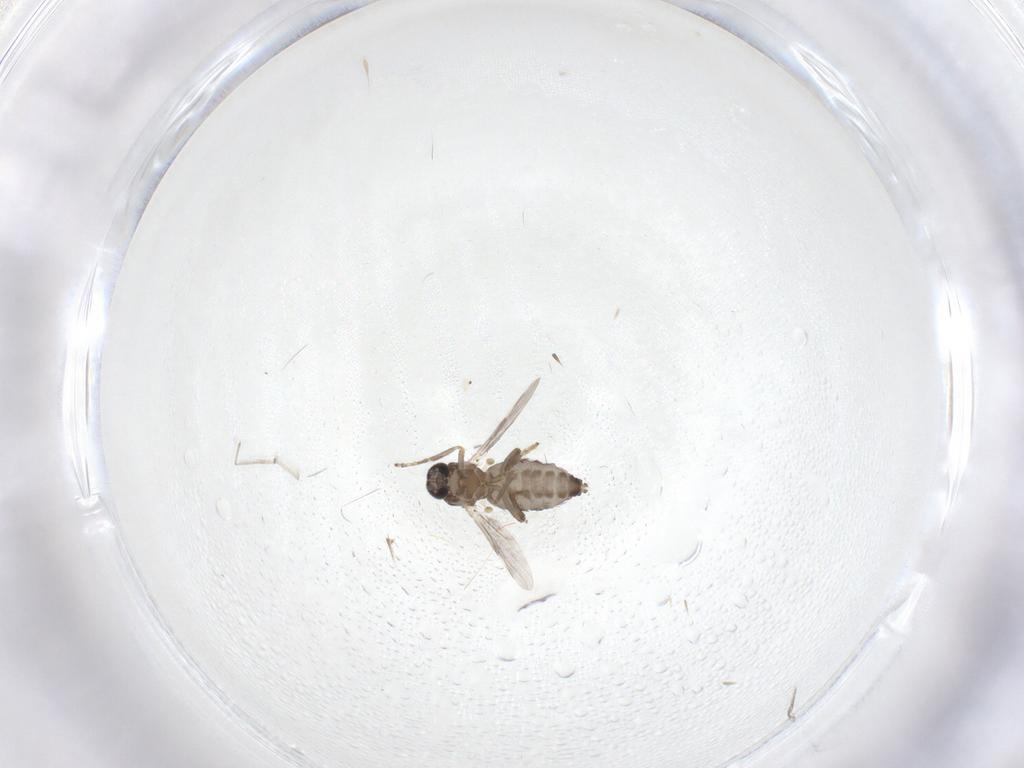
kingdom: Animalia
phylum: Arthropoda
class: Insecta
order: Diptera
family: Ceratopogonidae
